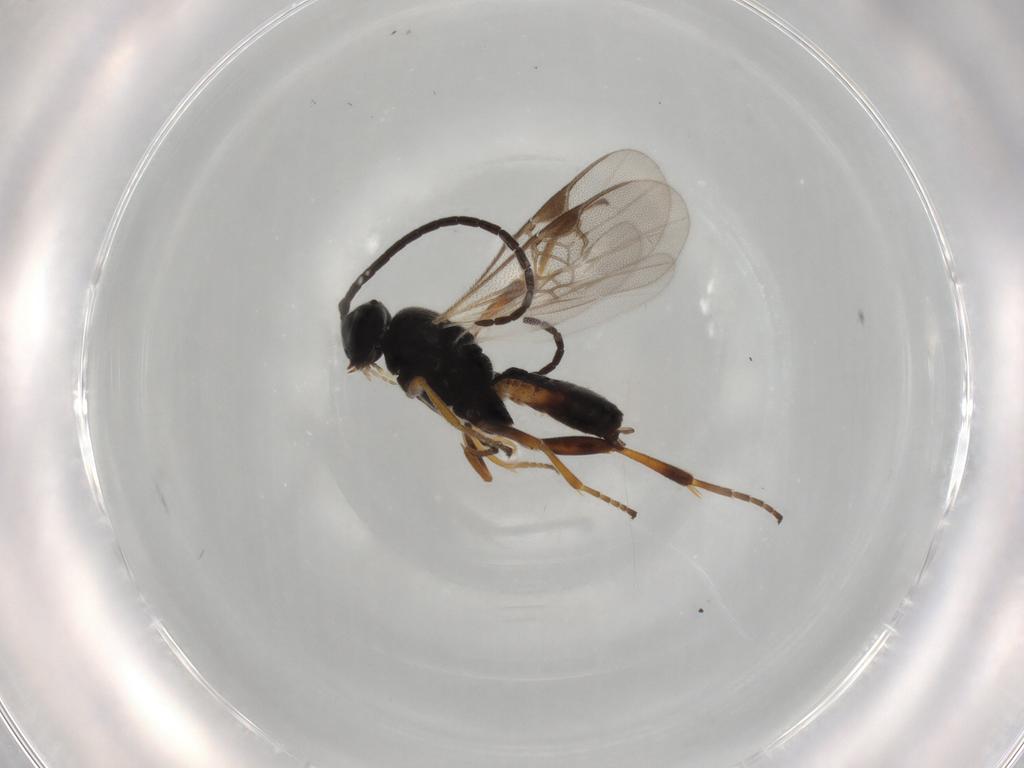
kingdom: Animalia
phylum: Arthropoda
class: Insecta
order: Hymenoptera
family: Braconidae
